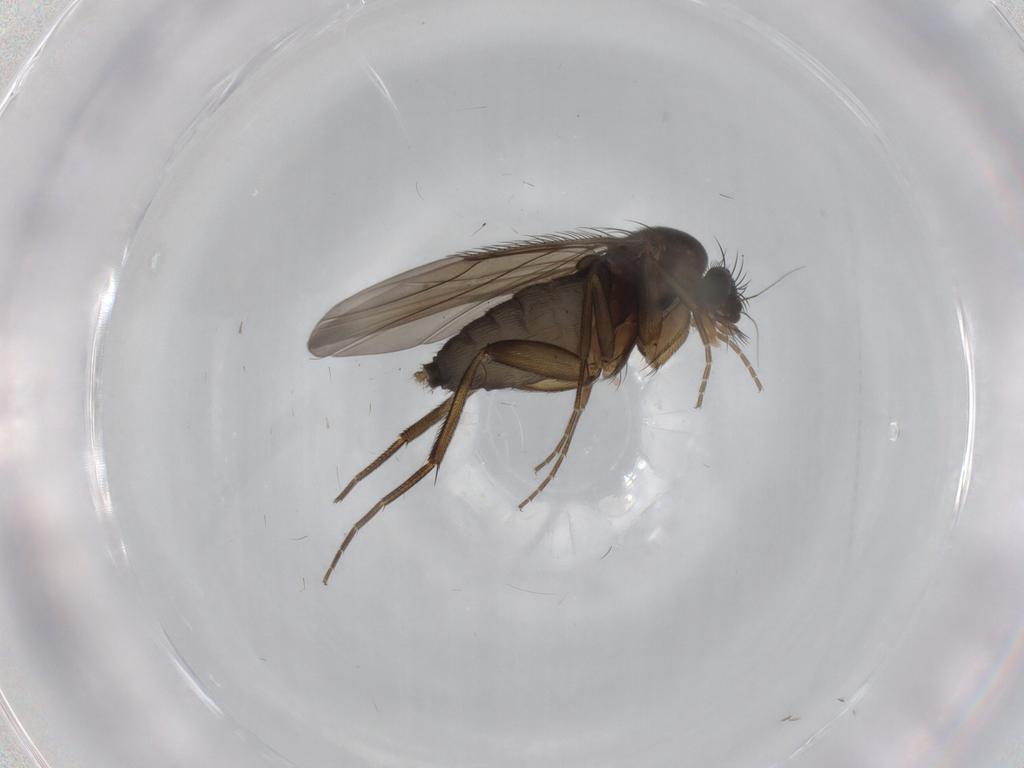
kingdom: Animalia
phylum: Arthropoda
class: Insecta
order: Diptera
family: Phoridae
